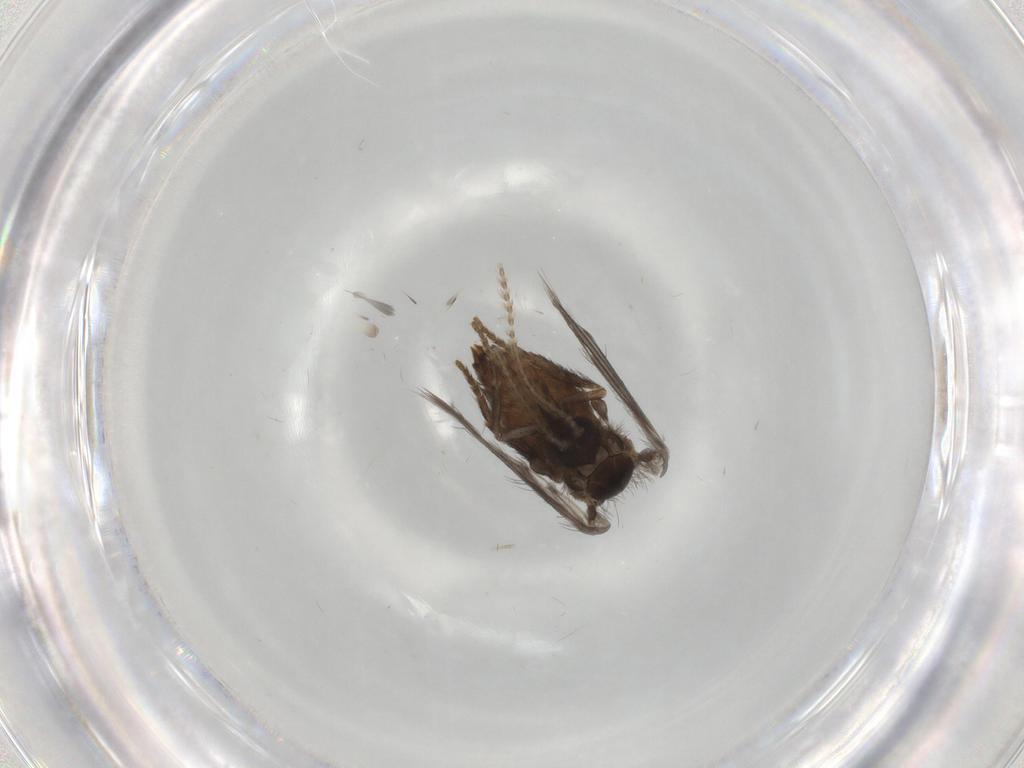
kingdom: Animalia
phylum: Arthropoda
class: Insecta
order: Diptera
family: Psychodidae
